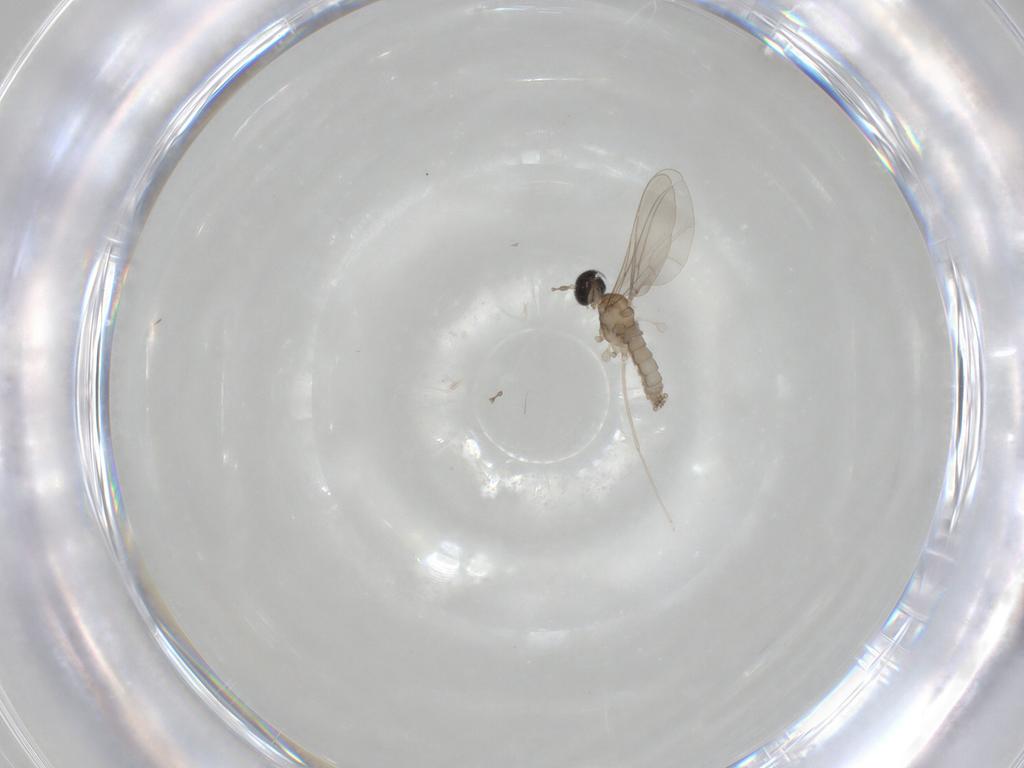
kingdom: Animalia
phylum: Arthropoda
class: Insecta
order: Diptera
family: Cecidomyiidae
